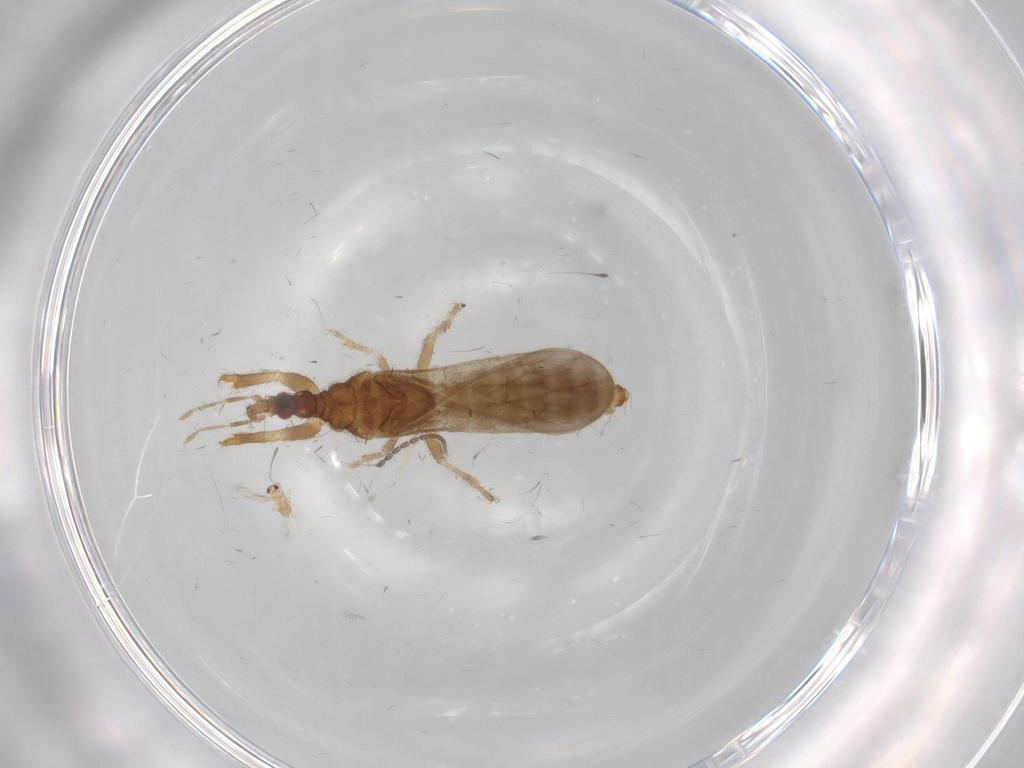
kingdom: Animalia
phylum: Arthropoda
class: Insecta
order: Hemiptera
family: Enicocephalidae
